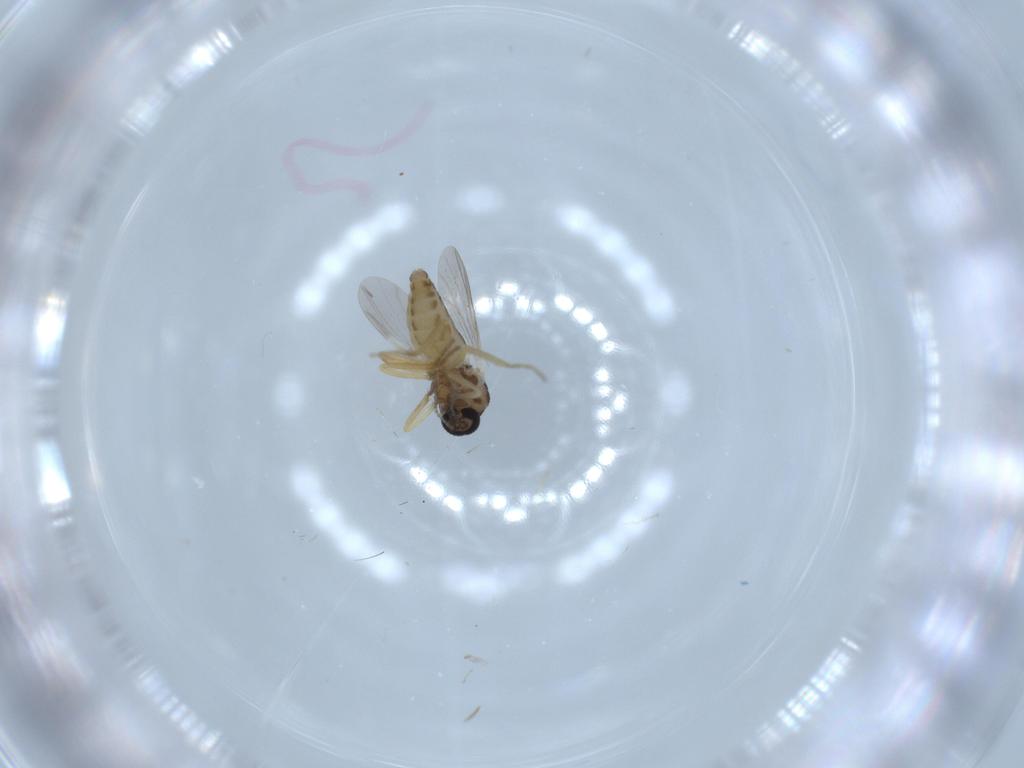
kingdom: Animalia
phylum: Arthropoda
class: Insecta
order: Diptera
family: Ceratopogonidae
